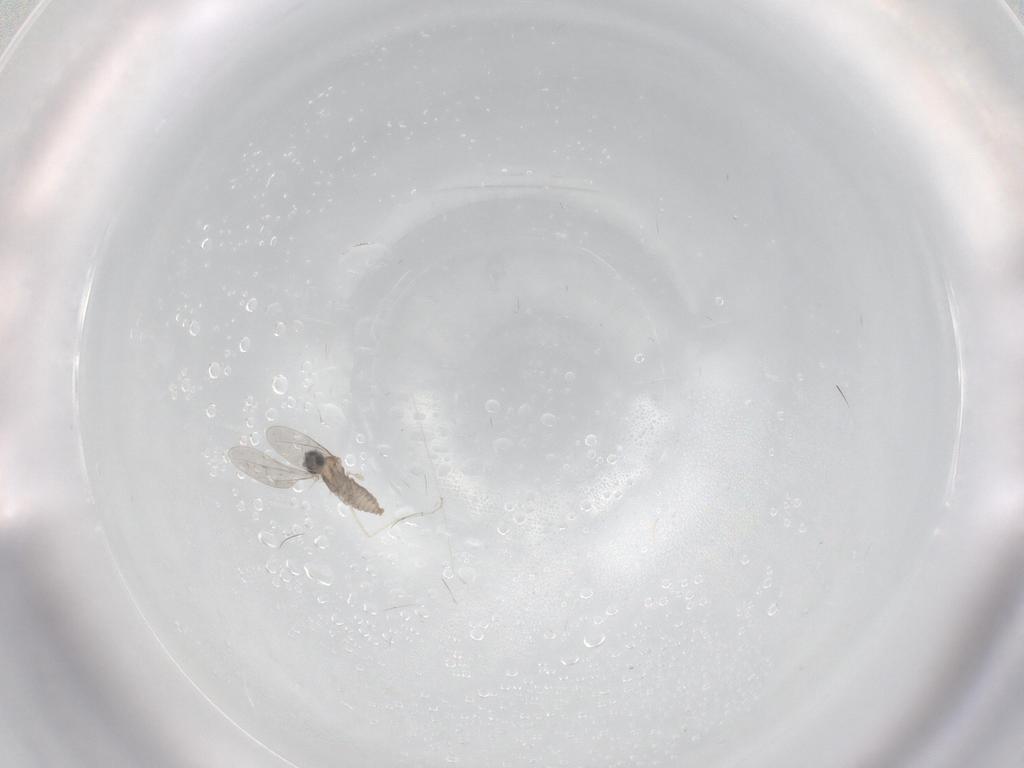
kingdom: Animalia
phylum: Arthropoda
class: Insecta
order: Diptera
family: Cecidomyiidae
